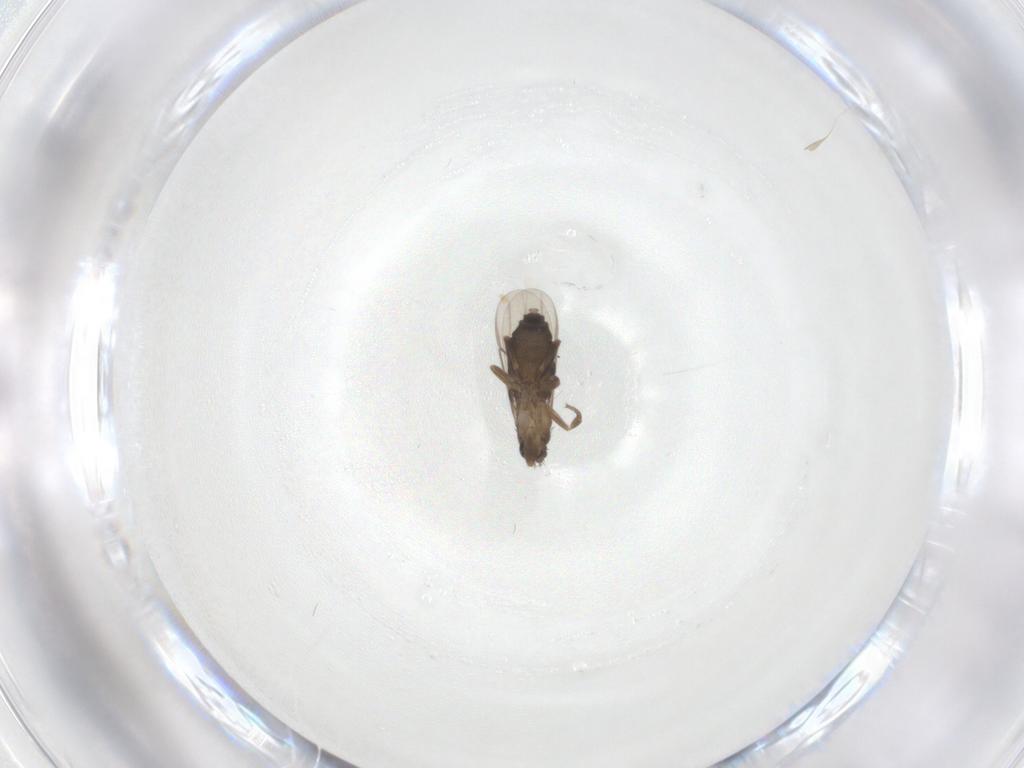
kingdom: Animalia
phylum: Arthropoda
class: Insecta
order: Diptera
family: Phoridae
